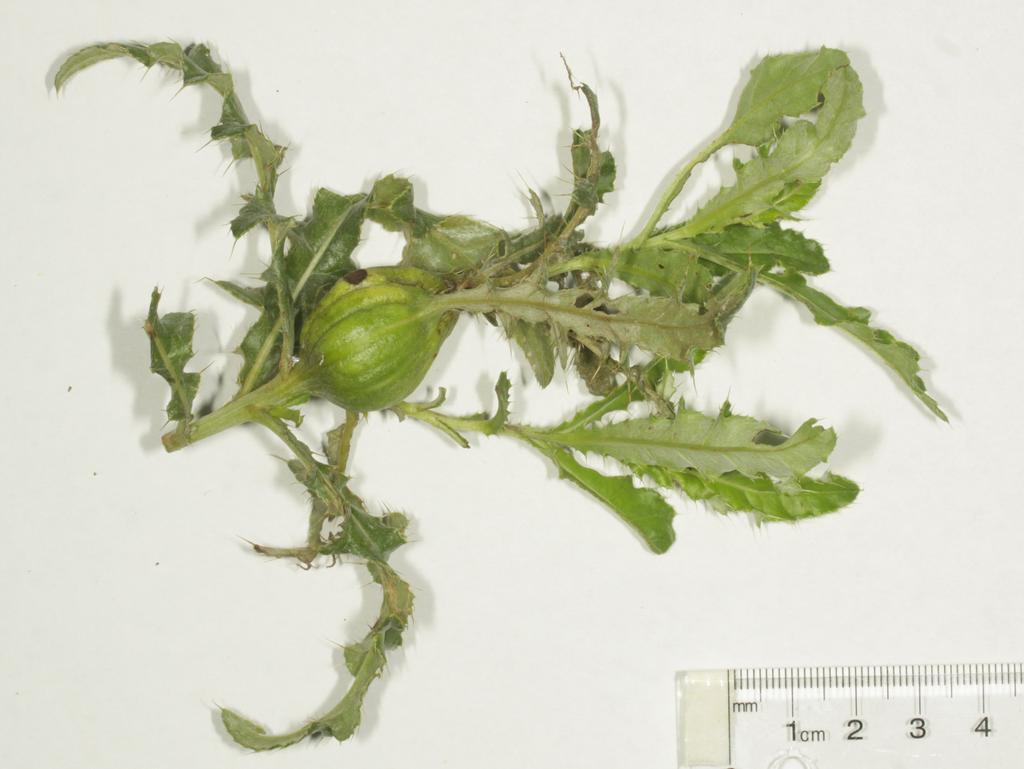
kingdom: Animalia
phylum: Arthropoda
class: Insecta
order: Hymenoptera
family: Eulophidae
